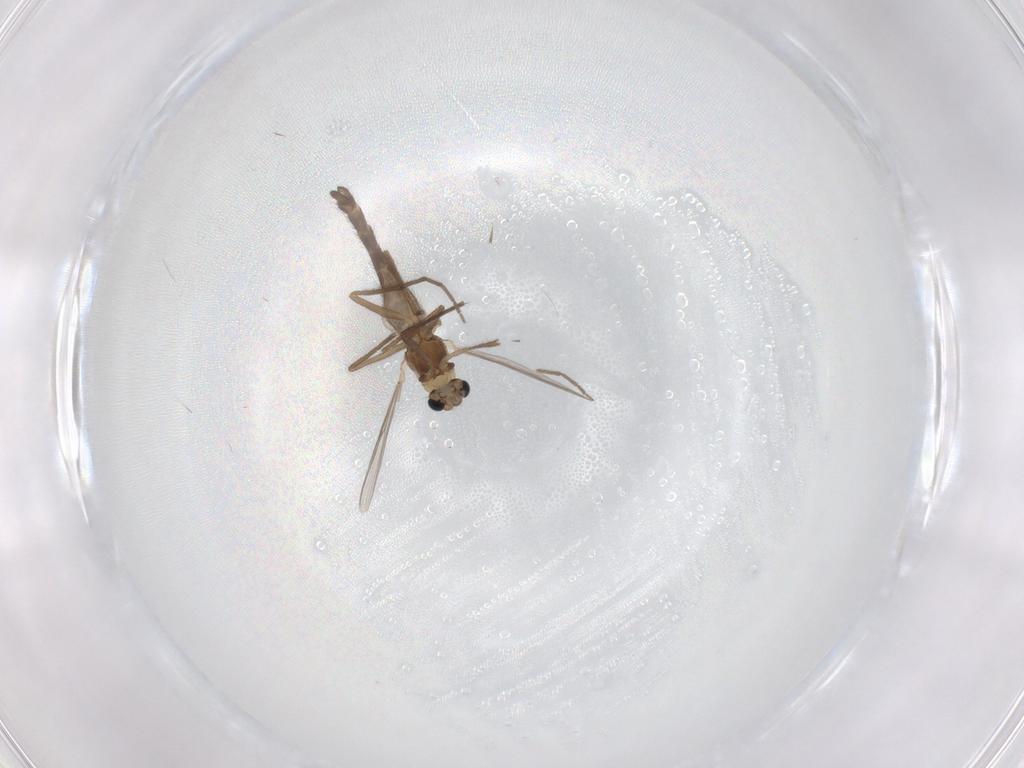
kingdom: Animalia
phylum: Arthropoda
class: Insecta
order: Diptera
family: Chironomidae
